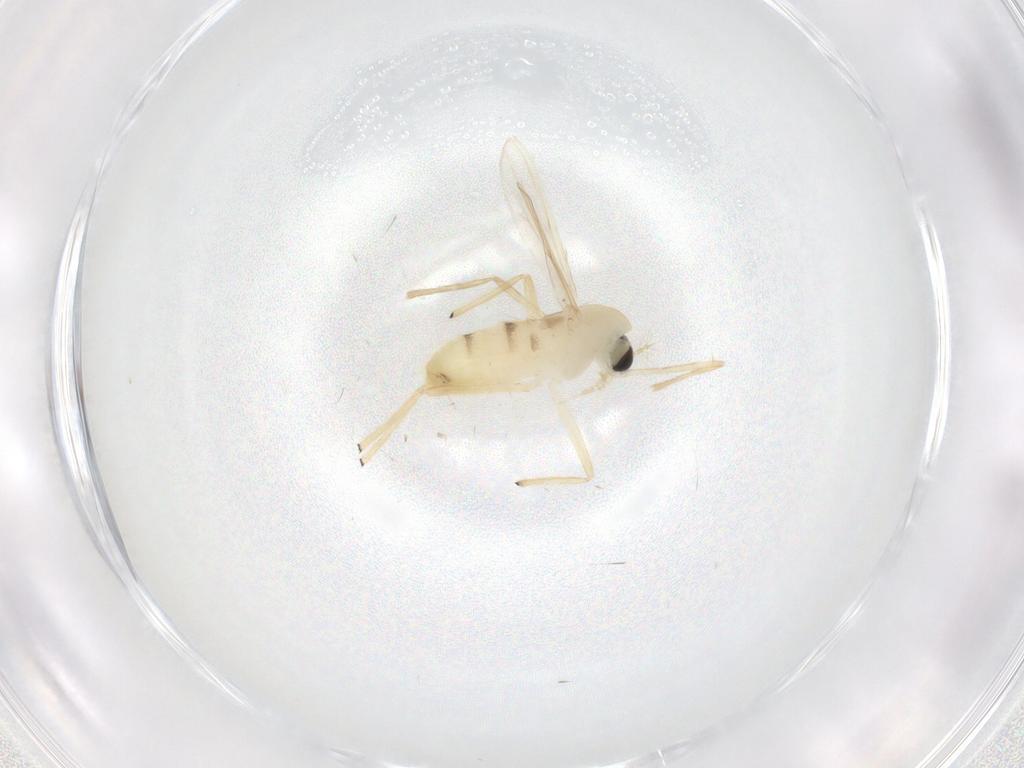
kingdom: Animalia
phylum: Arthropoda
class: Insecta
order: Diptera
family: Chironomidae
